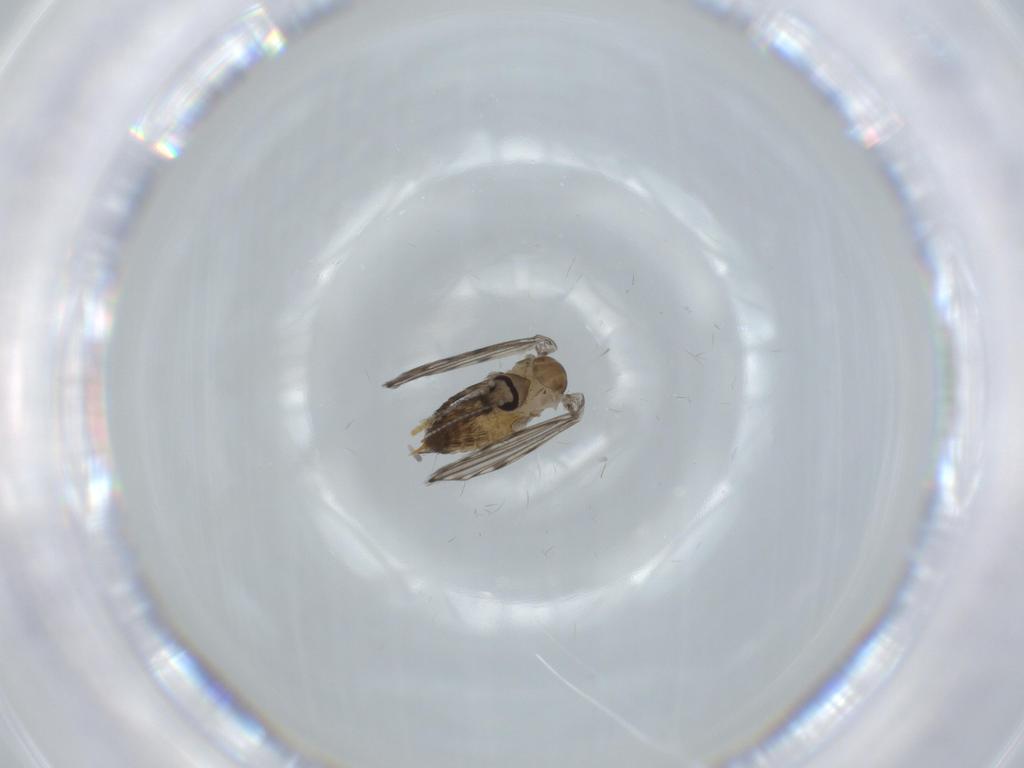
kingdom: Animalia
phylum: Arthropoda
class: Insecta
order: Diptera
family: Psychodidae
